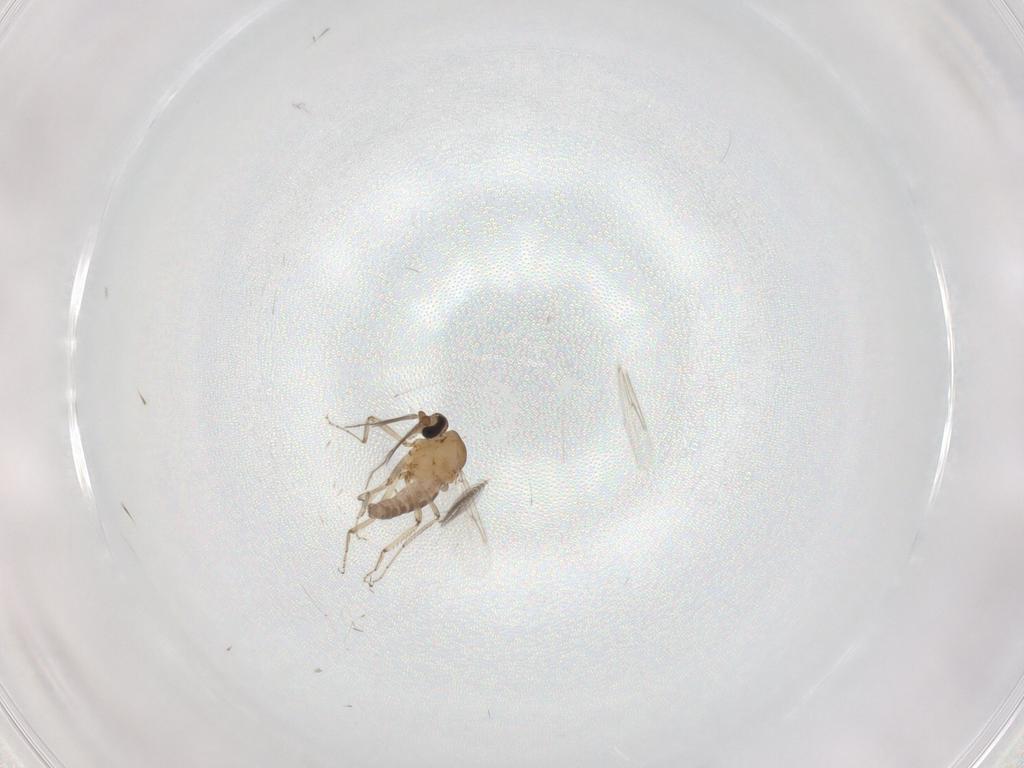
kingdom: Animalia
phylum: Arthropoda
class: Insecta
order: Diptera
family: Ceratopogonidae
